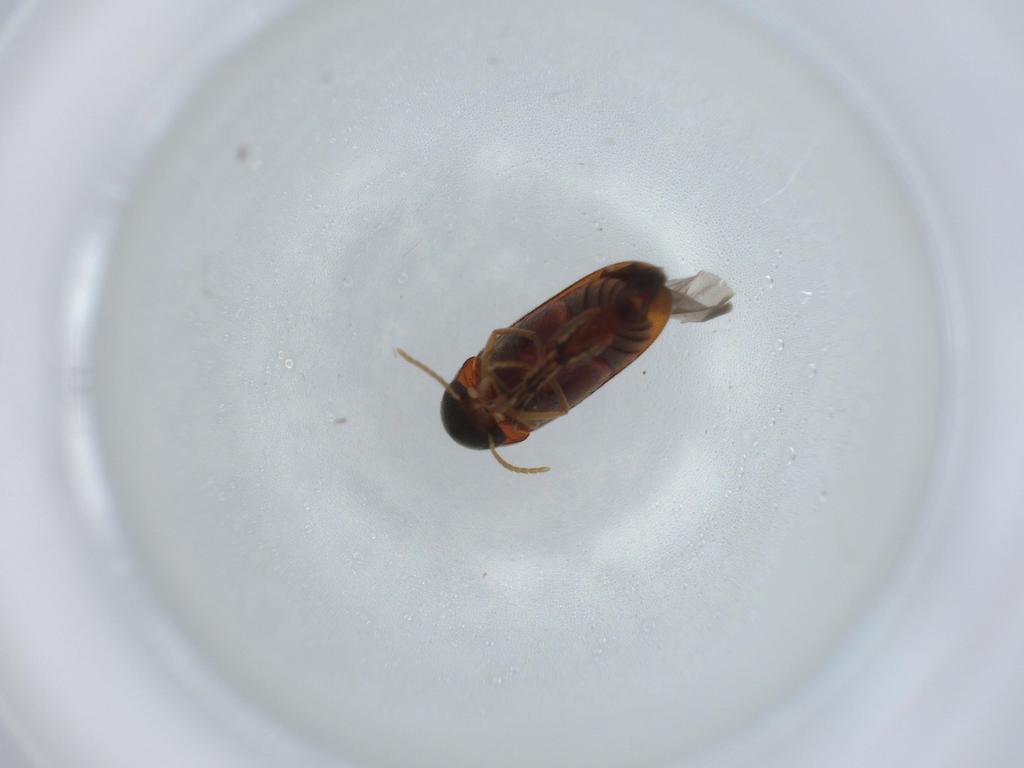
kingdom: Animalia
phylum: Arthropoda
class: Insecta
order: Coleoptera
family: Mordellidae
